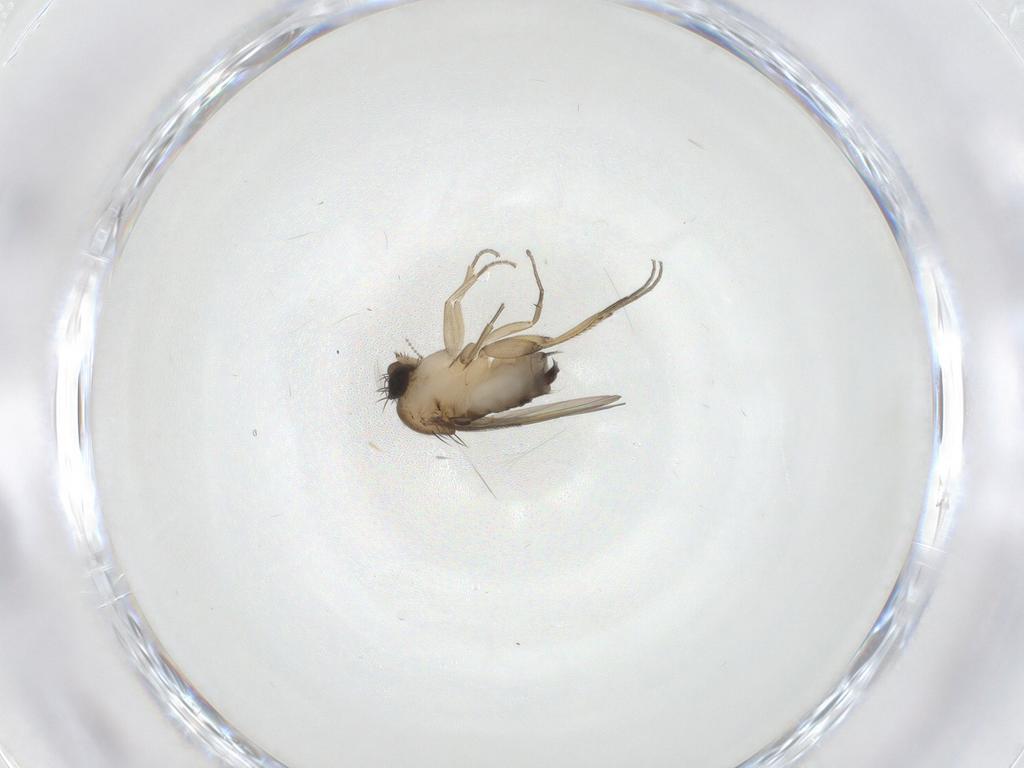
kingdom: Animalia
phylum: Arthropoda
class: Insecta
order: Diptera
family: Phoridae
